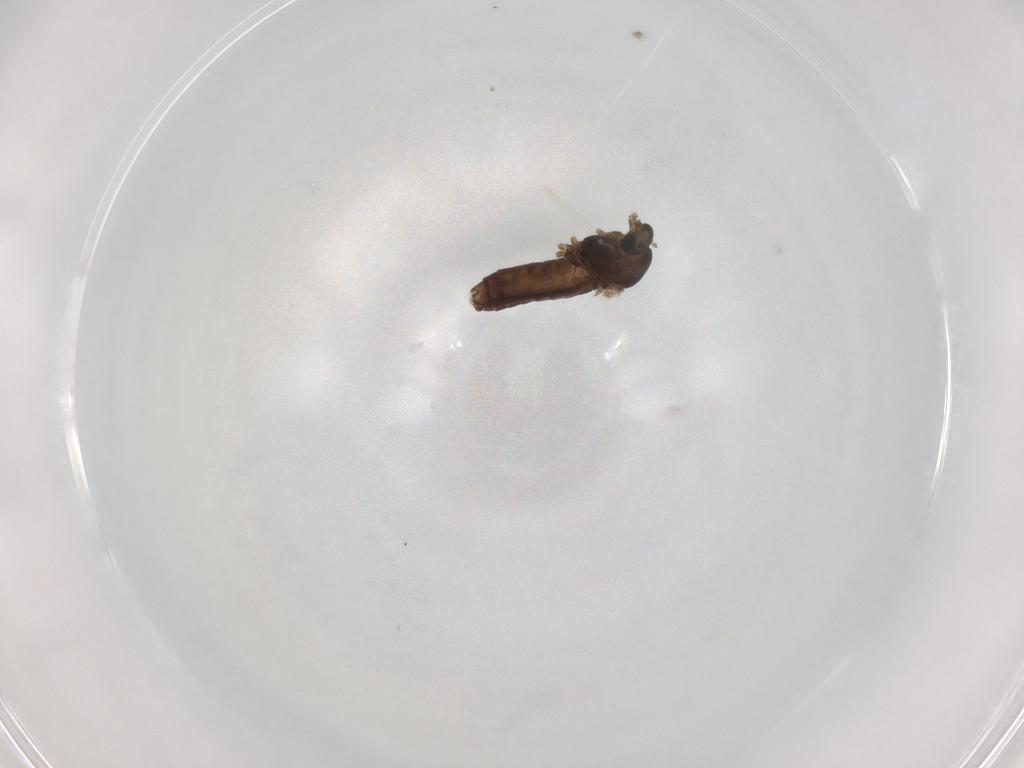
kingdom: Animalia
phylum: Arthropoda
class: Insecta
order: Diptera
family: Chironomidae
